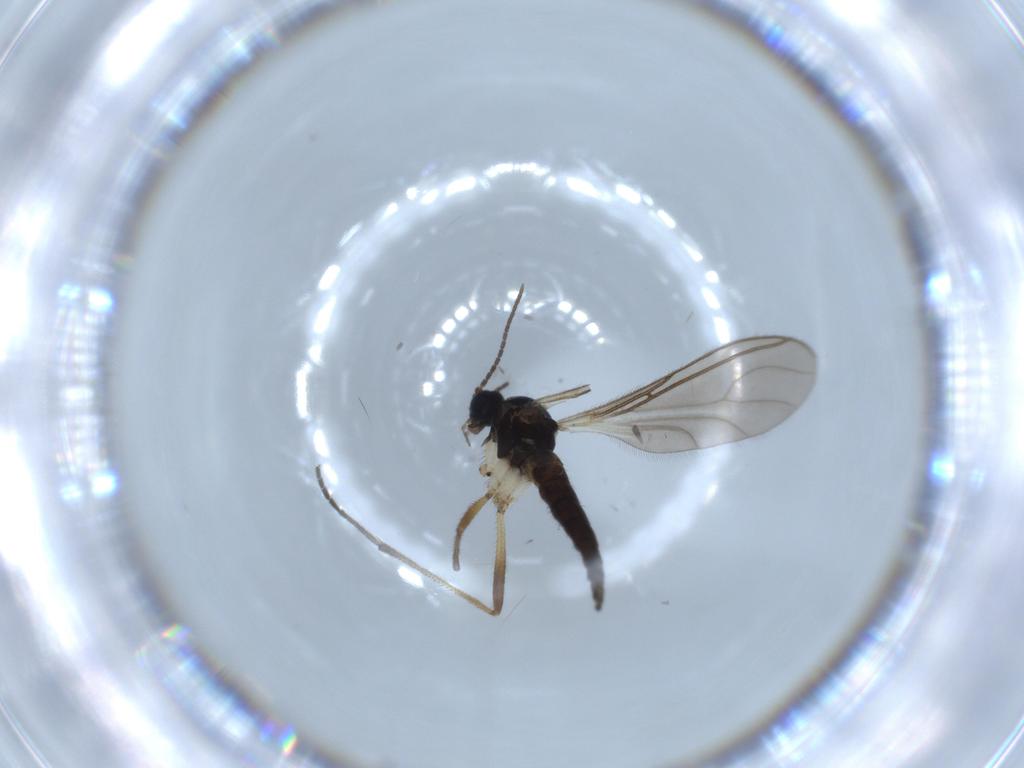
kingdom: Animalia
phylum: Arthropoda
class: Insecta
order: Diptera
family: Sciaridae
